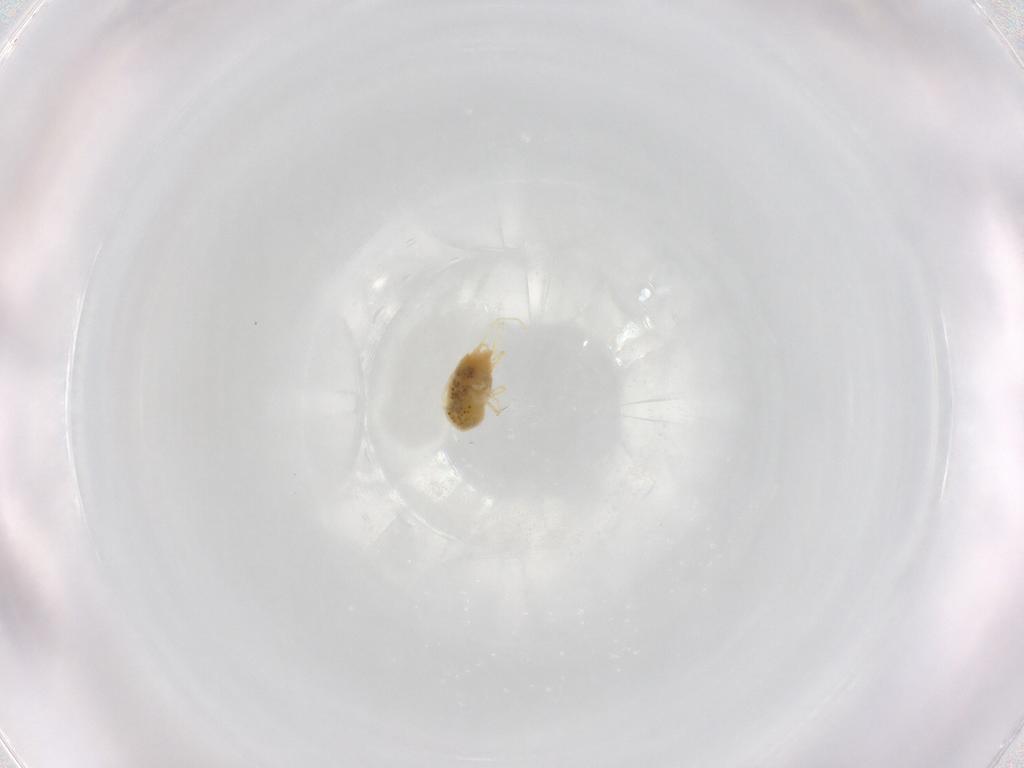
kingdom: Animalia
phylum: Arthropoda
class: Arachnida
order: Trombidiformes
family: Tetranychidae
